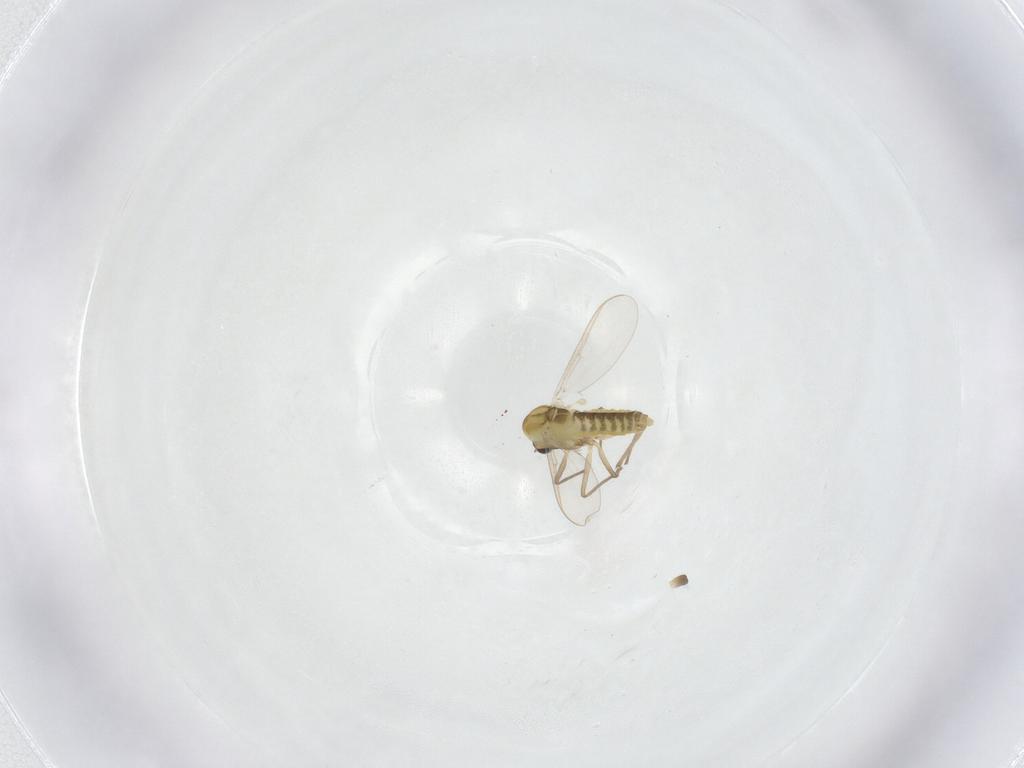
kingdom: Animalia
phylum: Arthropoda
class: Insecta
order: Diptera
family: Chironomidae
